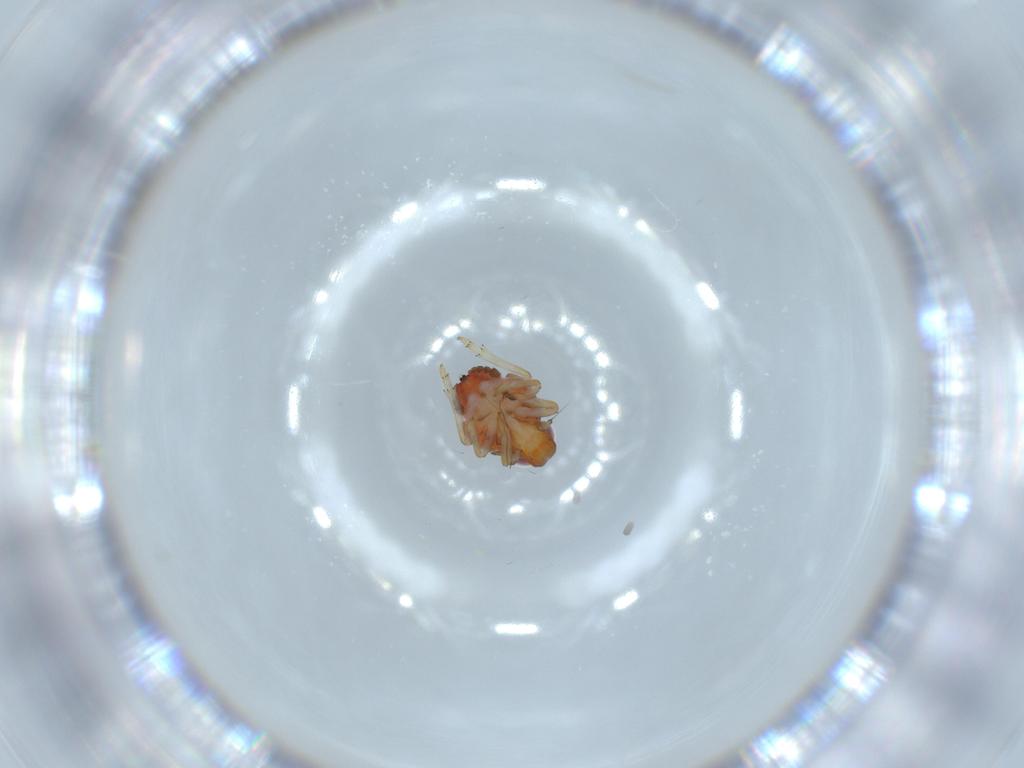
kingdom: Animalia
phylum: Arthropoda
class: Insecta
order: Hemiptera
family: Issidae
